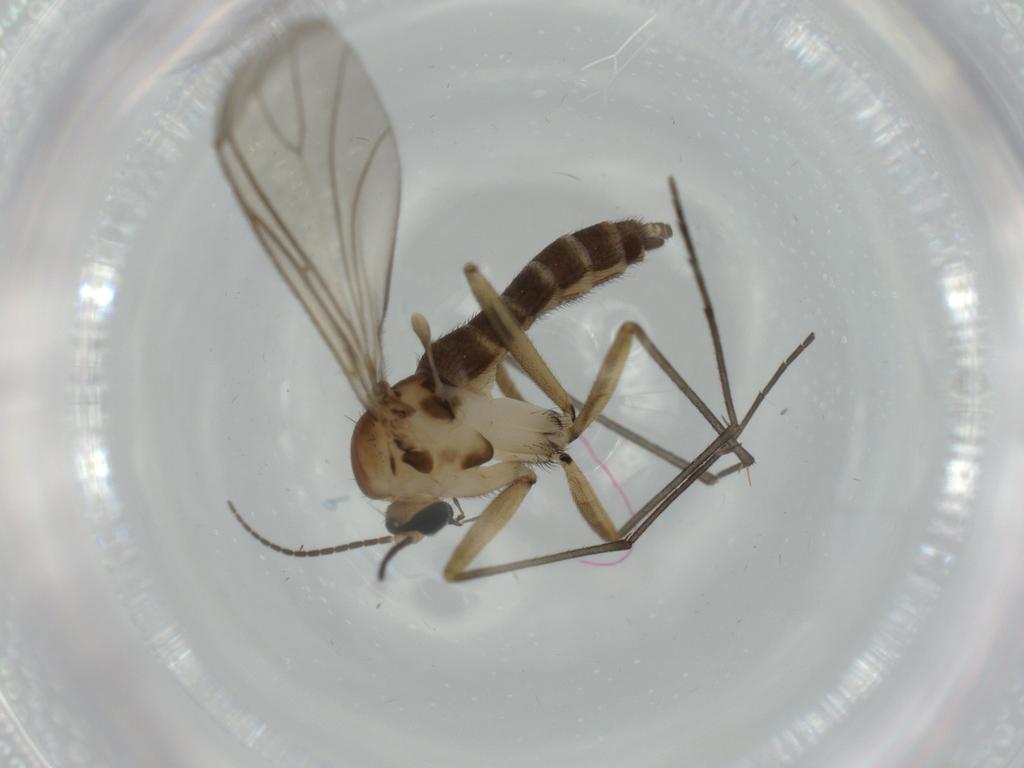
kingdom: Animalia
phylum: Arthropoda
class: Insecta
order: Diptera
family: Sciaridae
